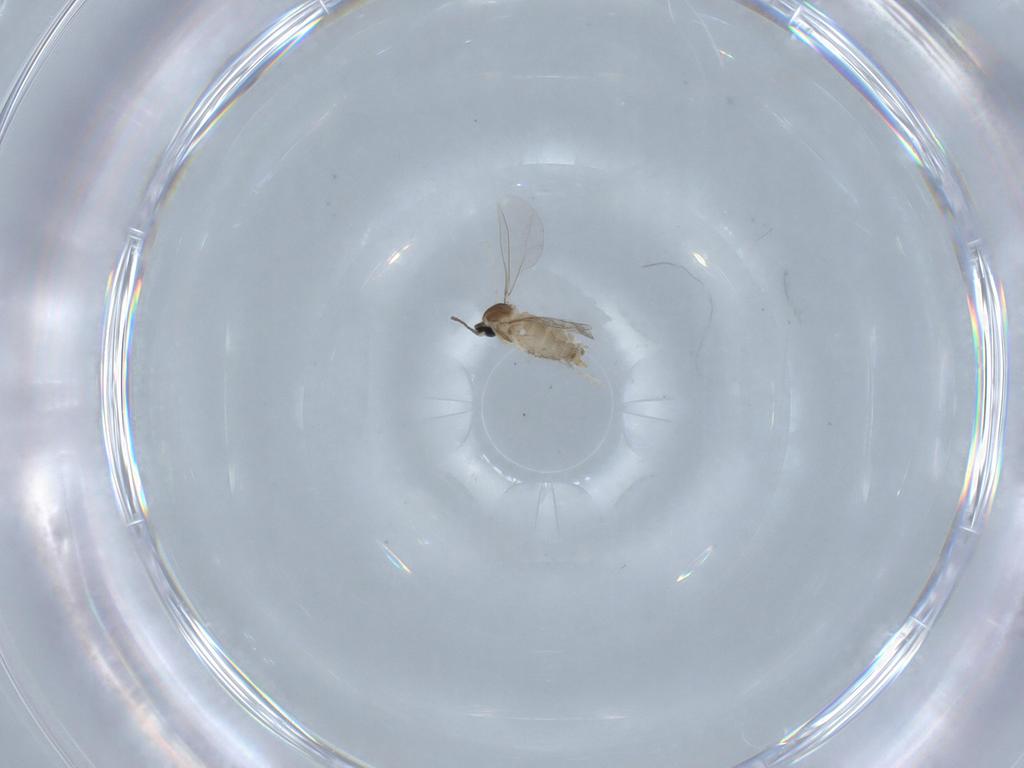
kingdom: Animalia
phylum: Arthropoda
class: Insecta
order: Diptera
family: Cecidomyiidae
